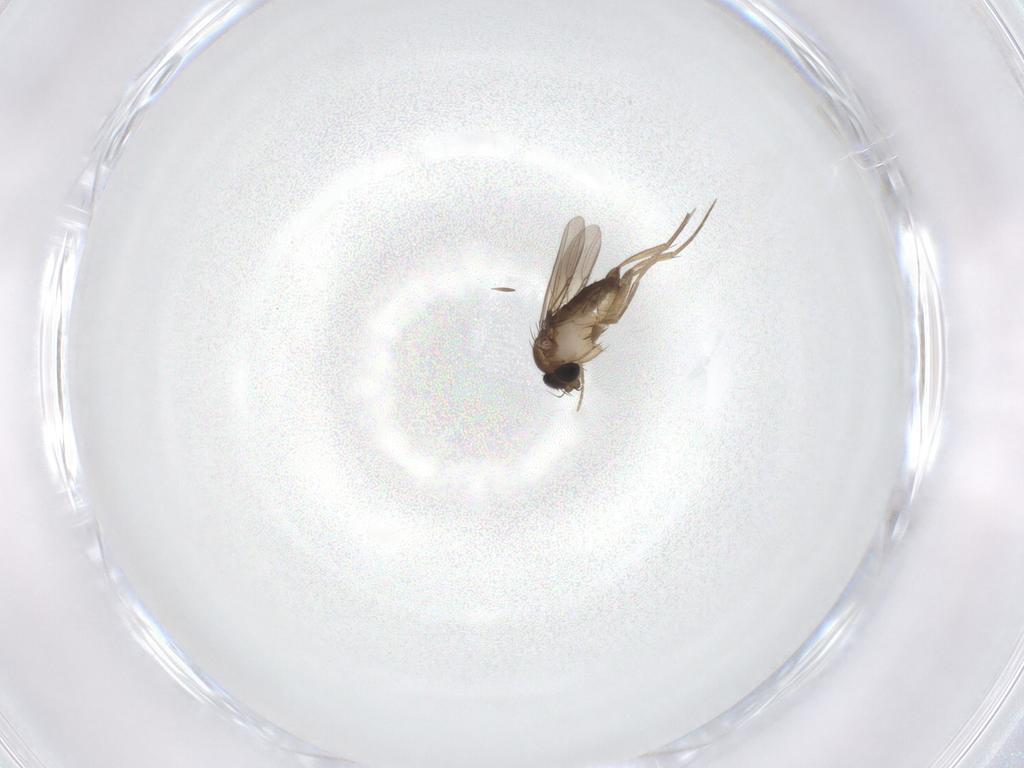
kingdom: Animalia
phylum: Arthropoda
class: Insecta
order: Diptera
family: Phoridae
